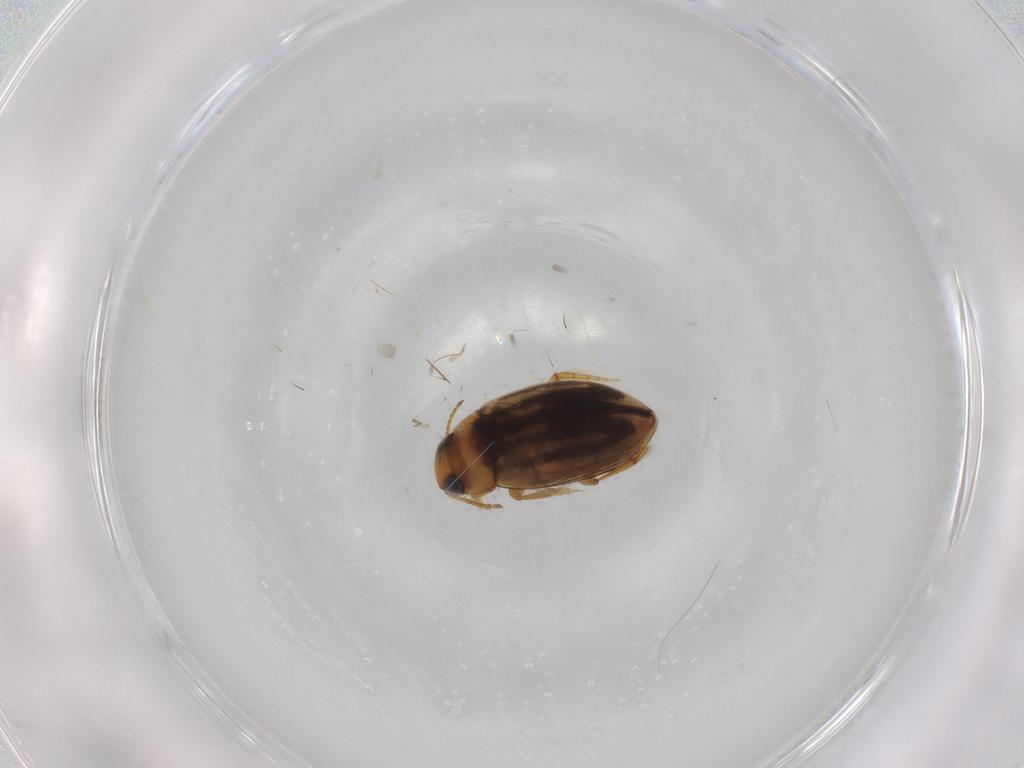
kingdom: Animalia
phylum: Arthropoda
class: Insecta
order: Coleoptera
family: Dytiscidae
